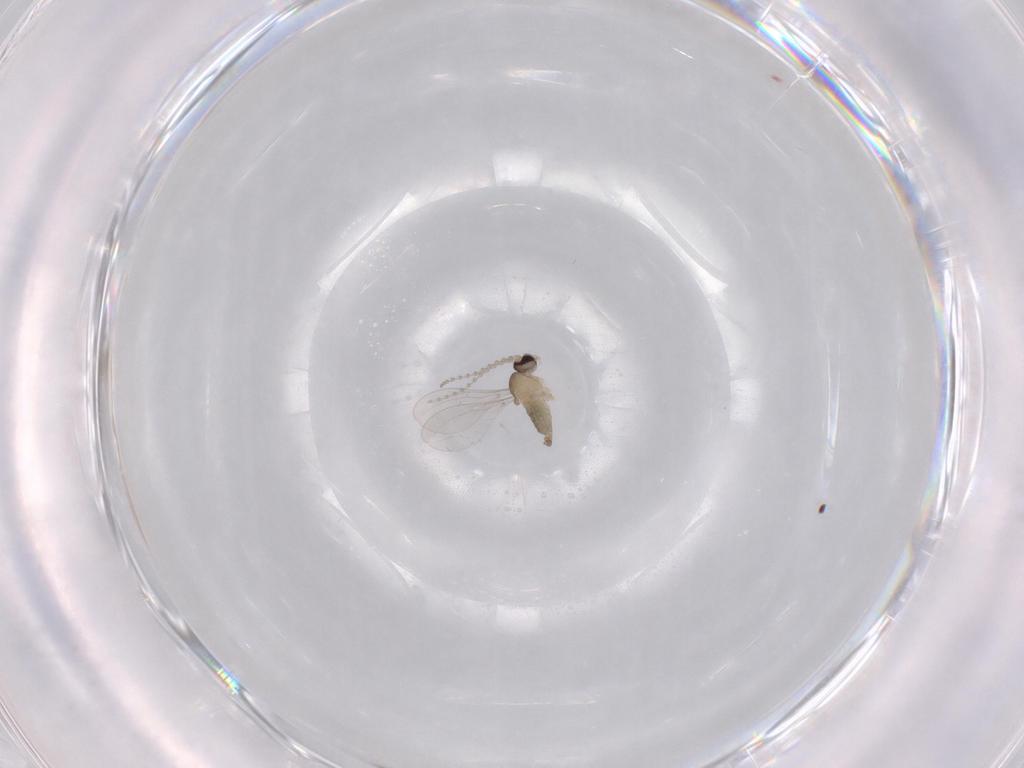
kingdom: Animalia
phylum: Arthropoda
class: Insecta
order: Diptera
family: Cecidomyiidae
